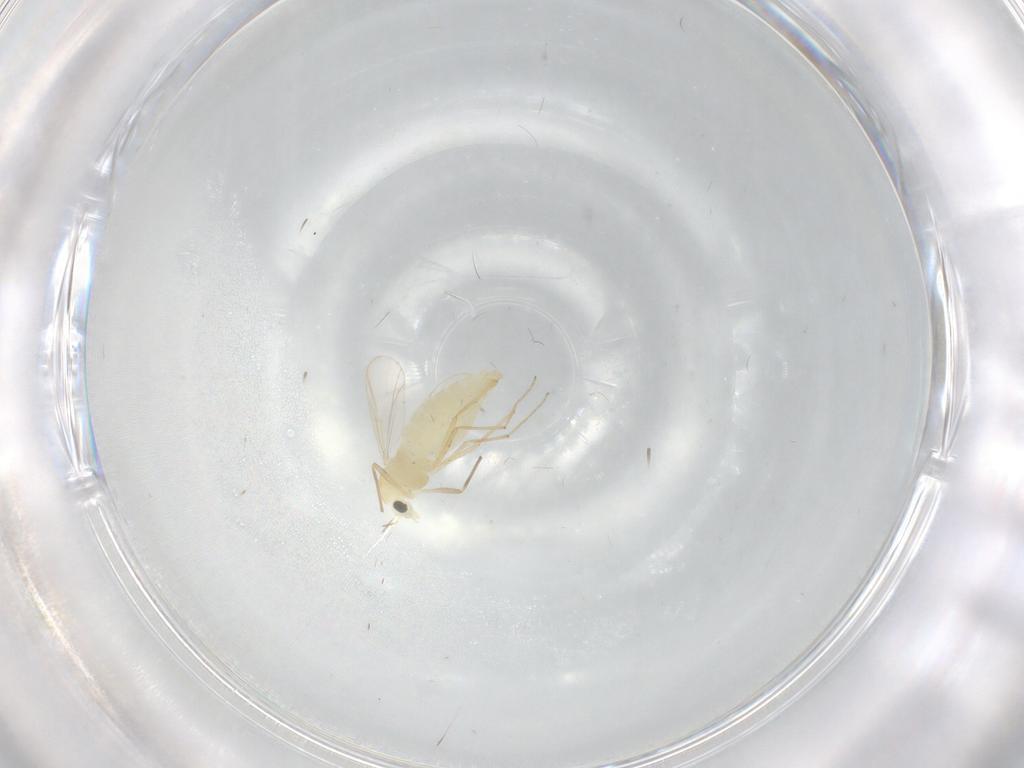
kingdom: Animalia
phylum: Arthropoda
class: Insecta
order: Diptera
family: Chironomidae
